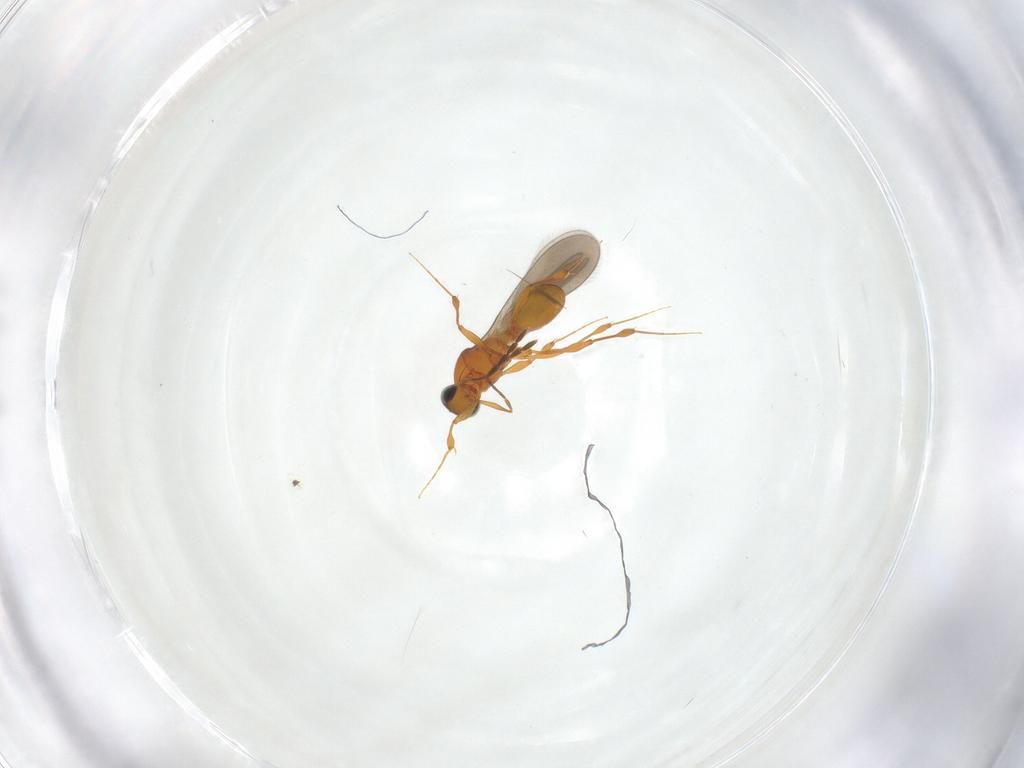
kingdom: Animalia
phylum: Arthropoda
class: Insecta
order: Hymenoptera
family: Platygastridae
